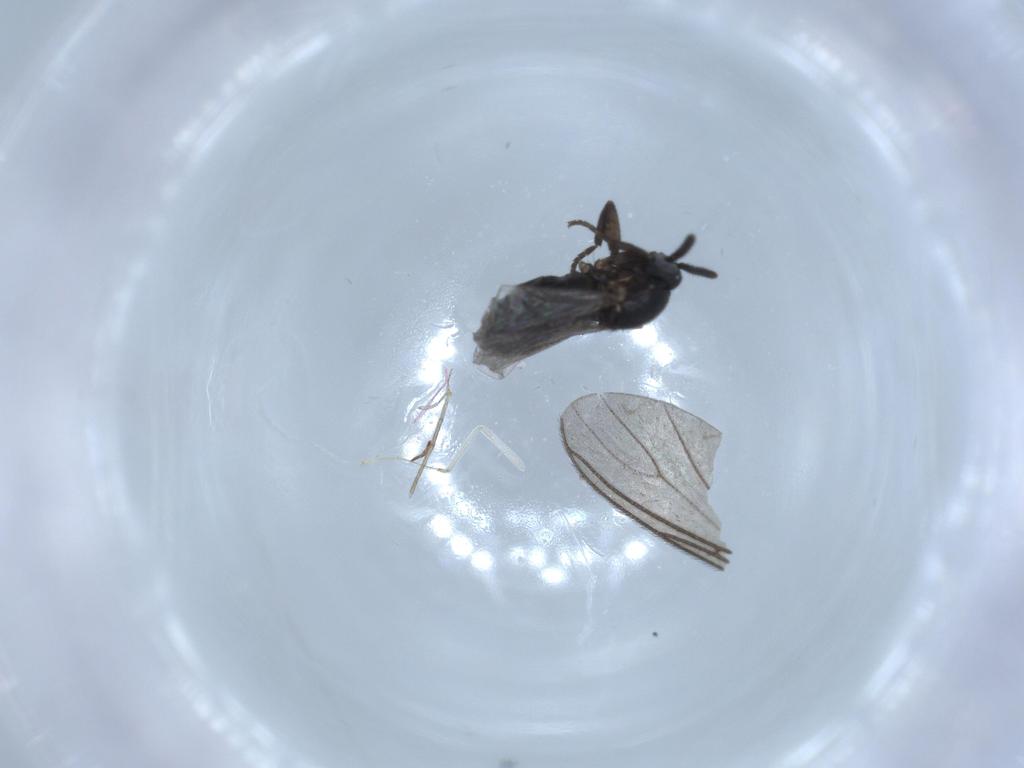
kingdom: Animalia
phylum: Arthropoda
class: Insecta
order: Diptera
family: Scatopsidae
